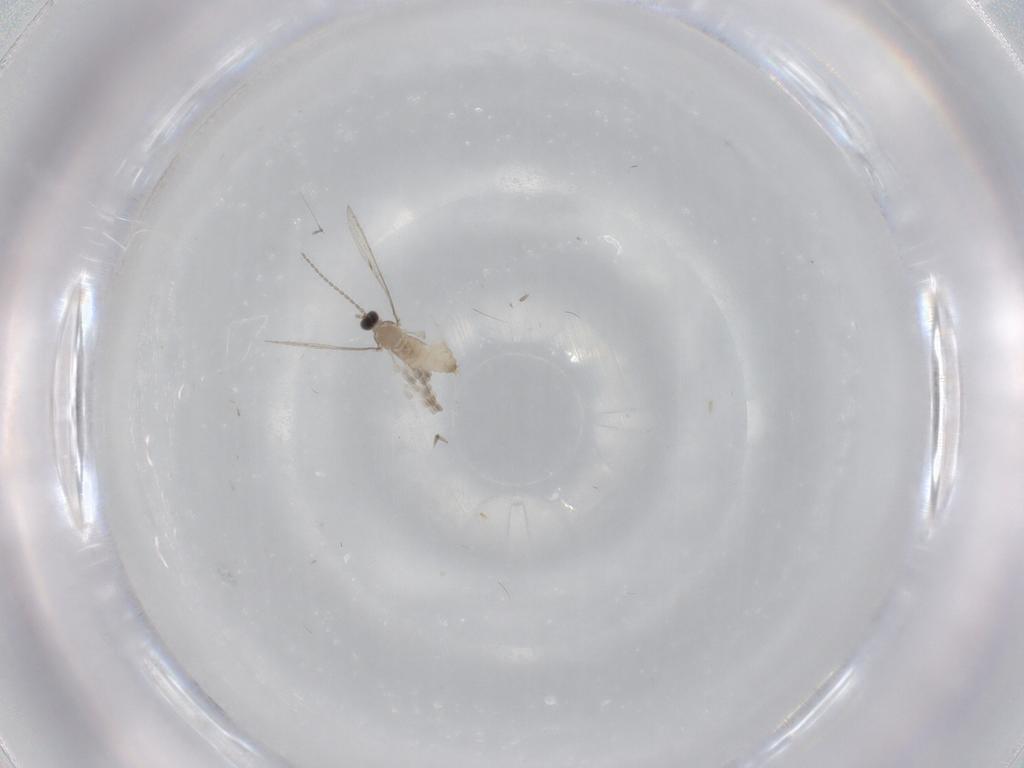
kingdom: Animalia
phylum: Arthropoda
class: Insecta
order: Diptera
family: Cecidomyiidae
